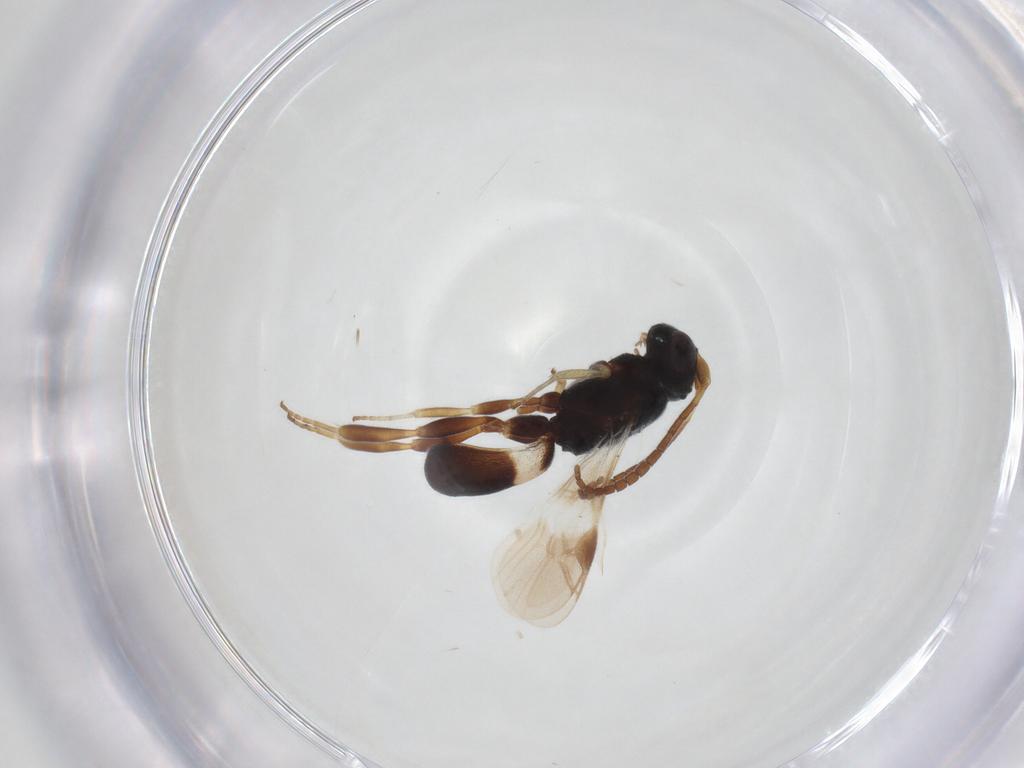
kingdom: Animalia
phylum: Arthropoda
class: Insecta
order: Hymenoptera
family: Braconidae
